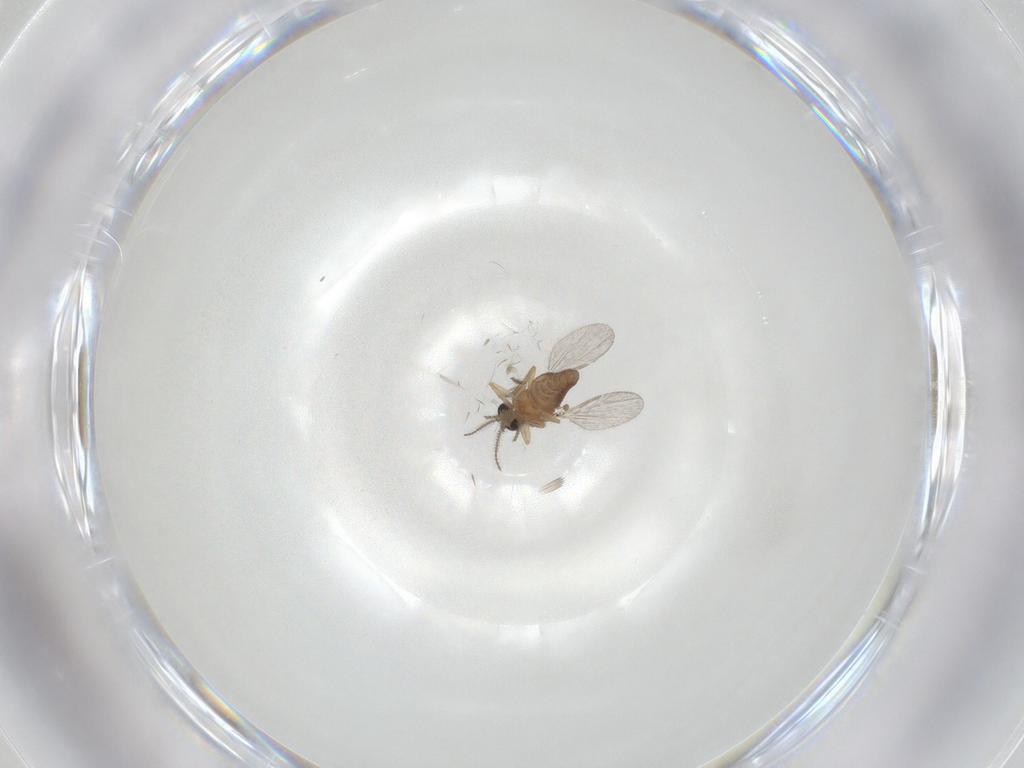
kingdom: Animalia
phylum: Arthropoda
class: Insecta
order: Diptera
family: Ceratopogonidae
